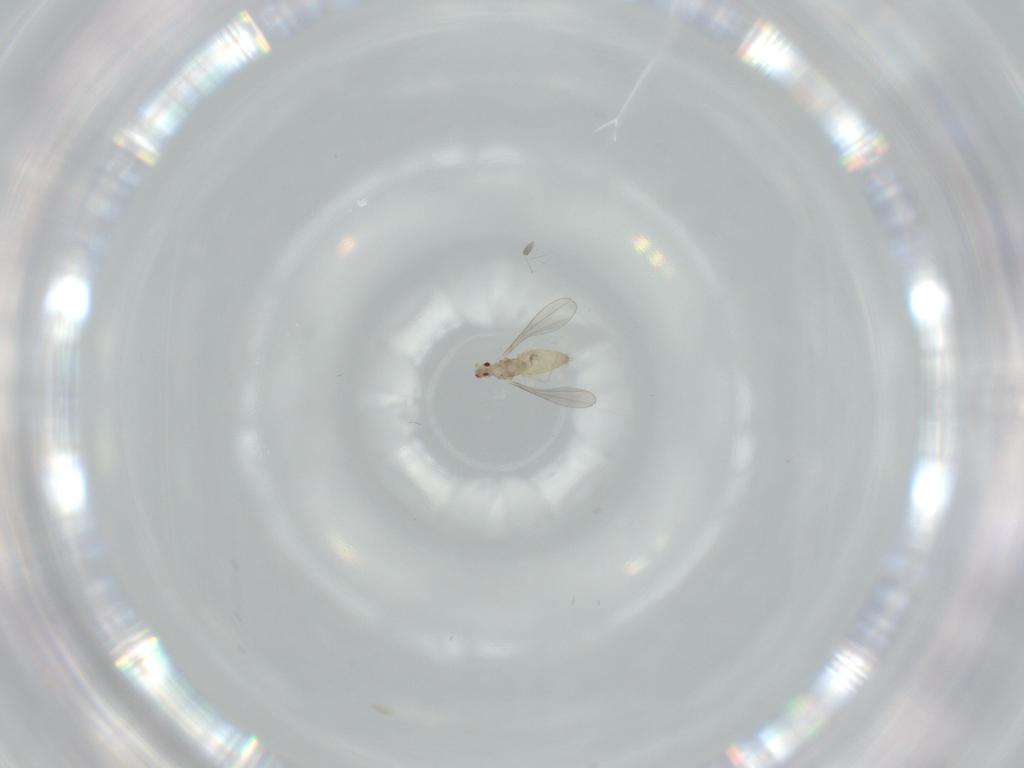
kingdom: Animalia
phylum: Arthropoda
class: Insecta
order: Diptera
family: Cecidomyiidae
